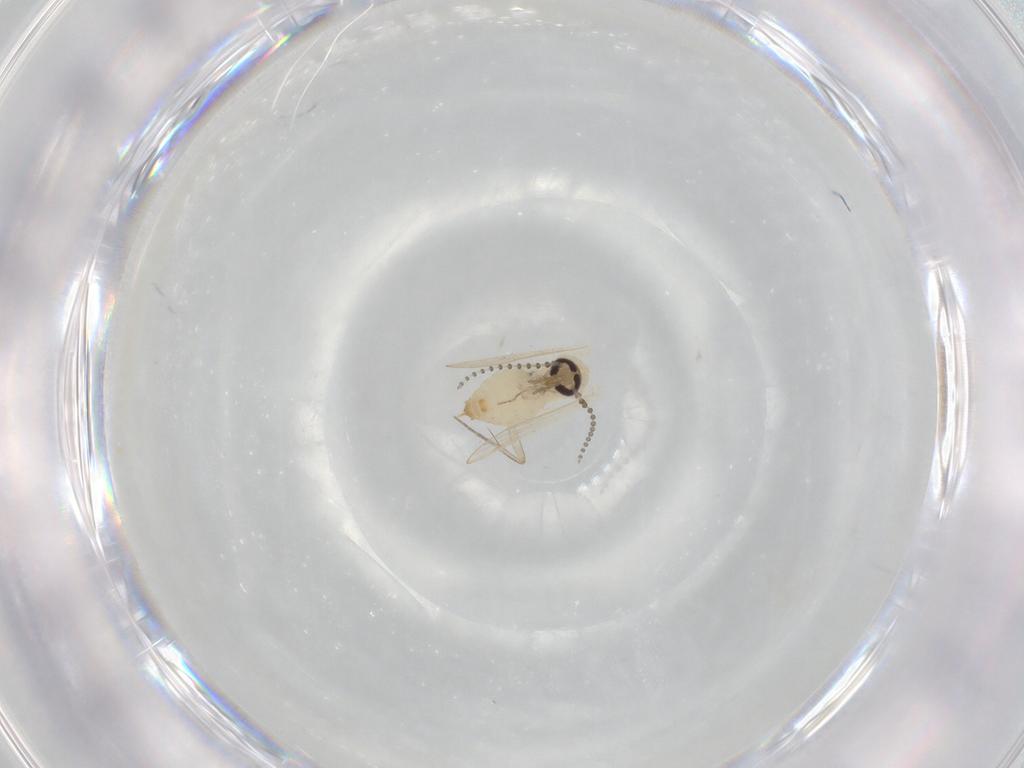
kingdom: Animalia
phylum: Arthropoda
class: Insecta
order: Diptera
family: Psychodidae
